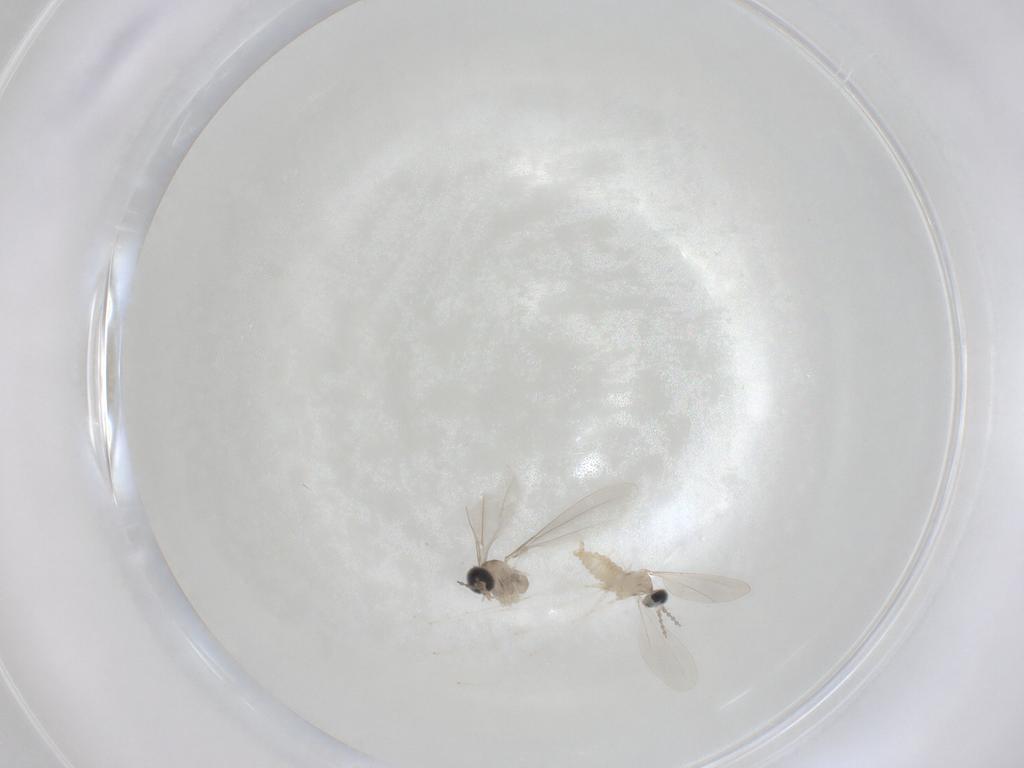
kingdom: Animalia
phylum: Arthropoda
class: Insecta
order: Diptera
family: Cecidomyiidae
